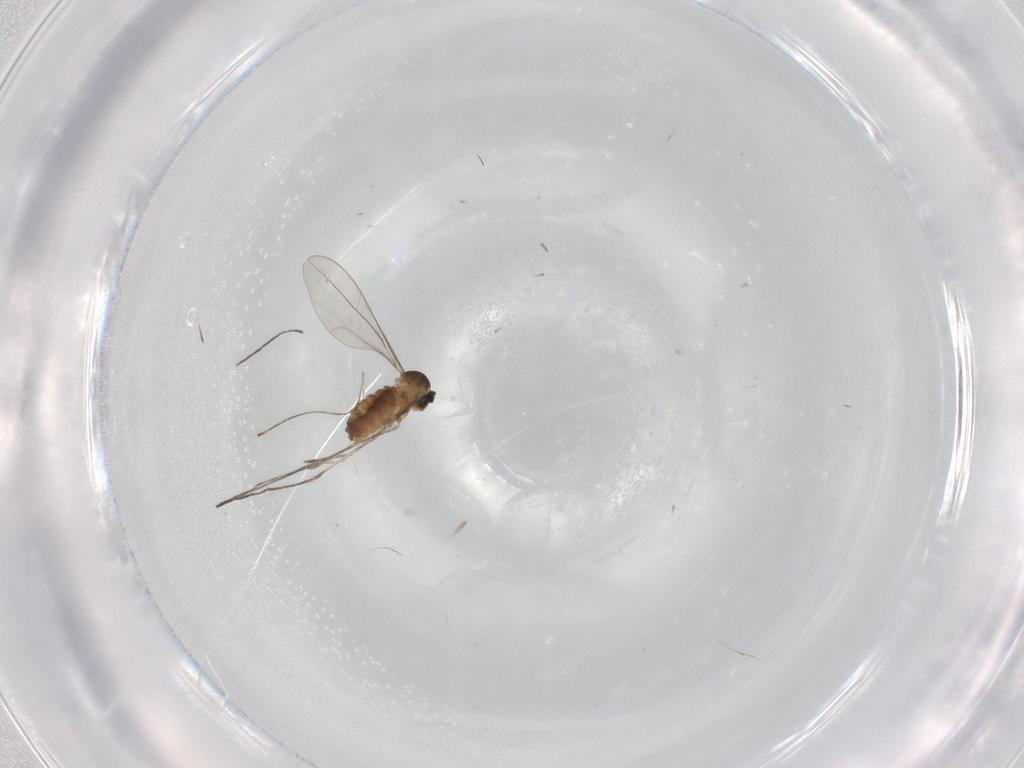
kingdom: Animalia
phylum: Arthropoda
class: Insecta
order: Diptera
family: Cecidomyiidae
